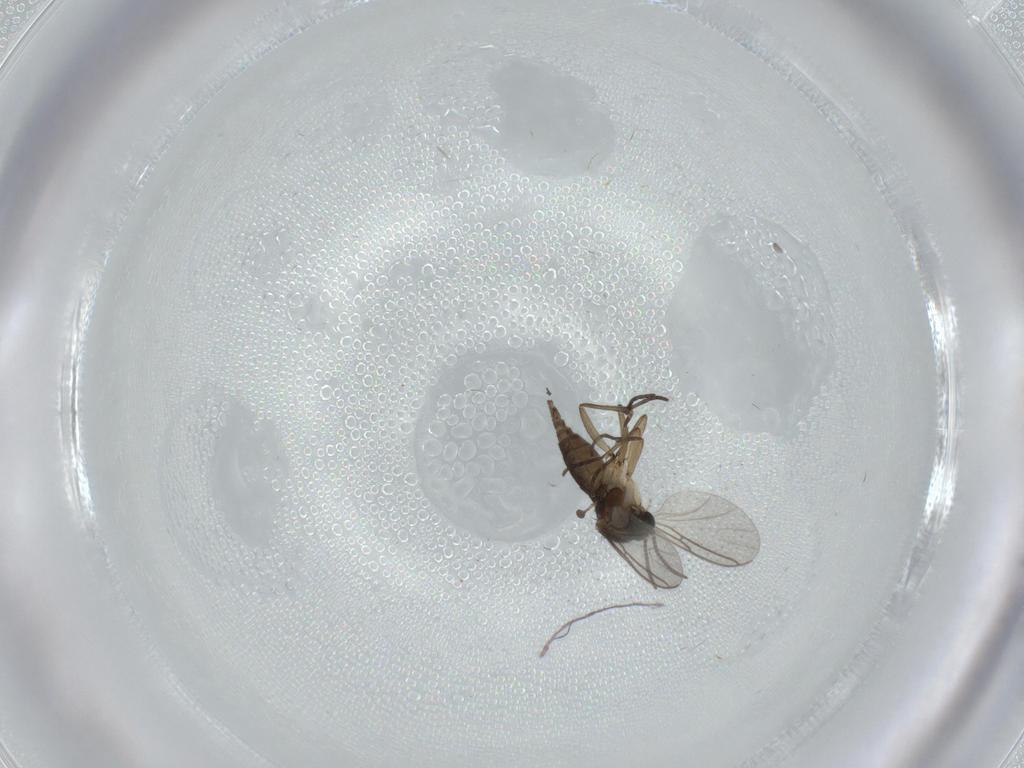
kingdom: Animalia
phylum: Arthropoda
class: Insecta
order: Diptera
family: Sciaridae
